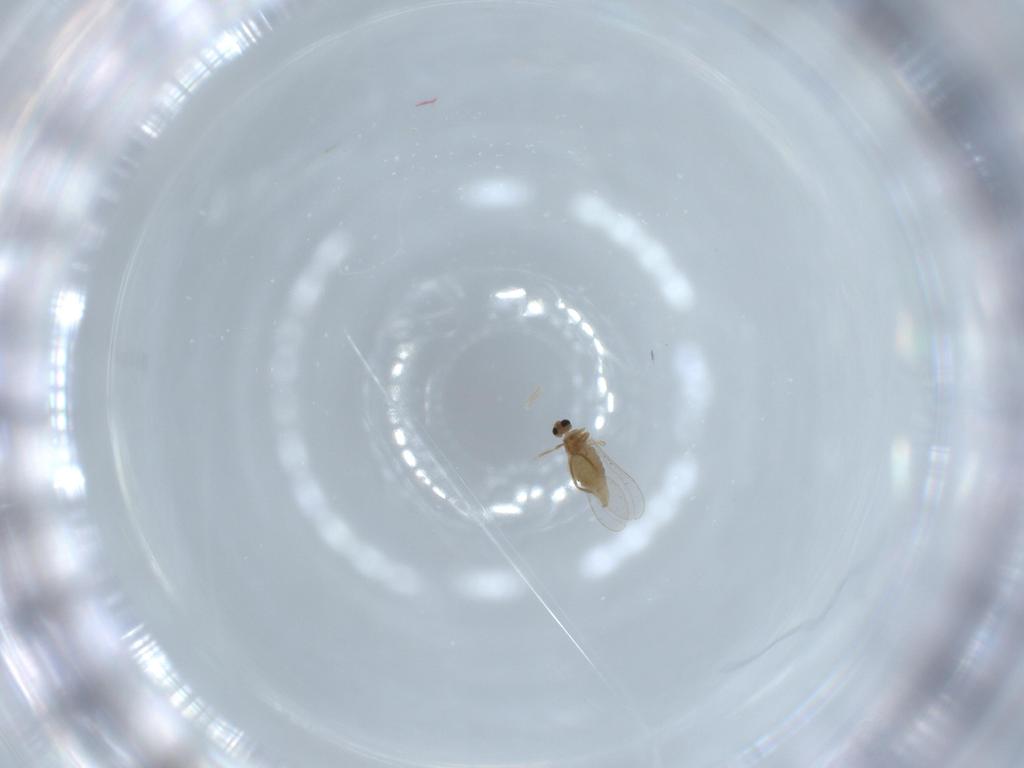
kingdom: Animalia
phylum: Arthropoda
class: Insecta
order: Diptera
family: Cecidomyiidae
